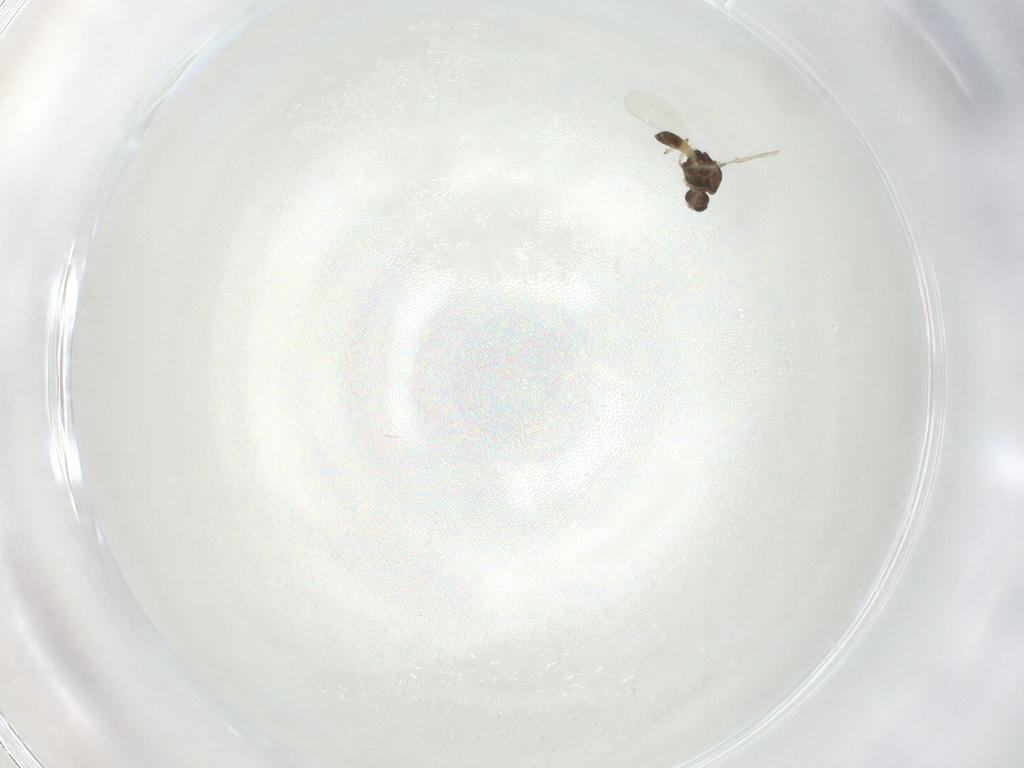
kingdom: Animalia
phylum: Arthropoda
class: Insecta
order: Diptera
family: Chironomidae
